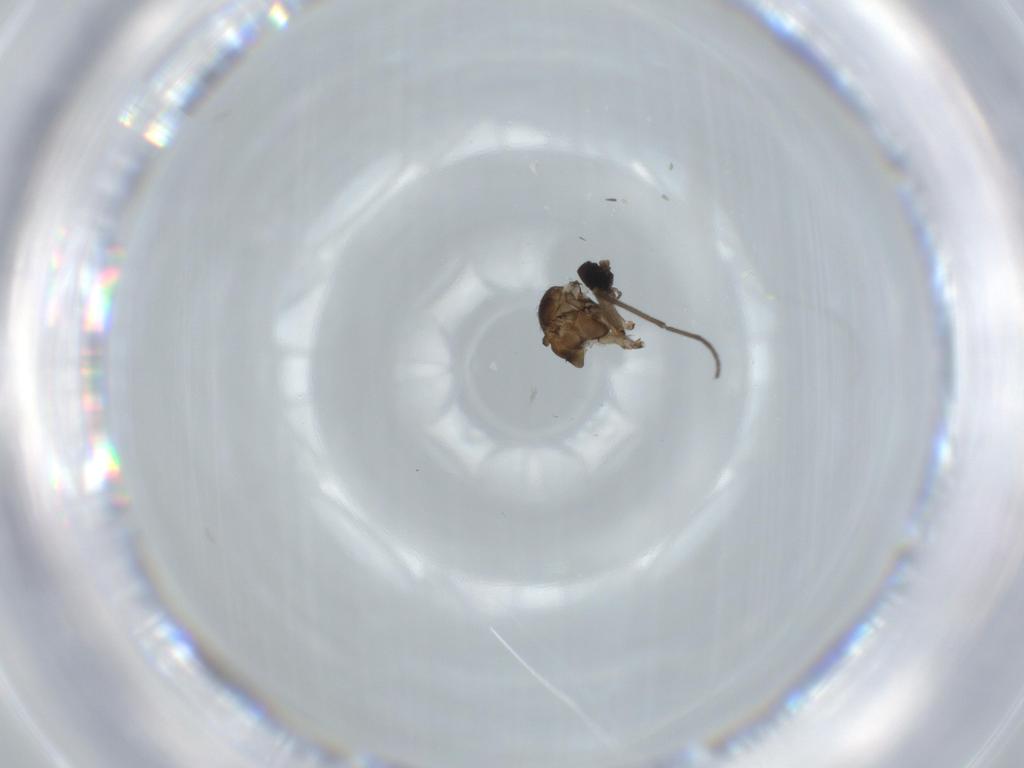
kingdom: Animalia
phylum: Arthropoda
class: Insecta
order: Diptera
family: Sciaridae
